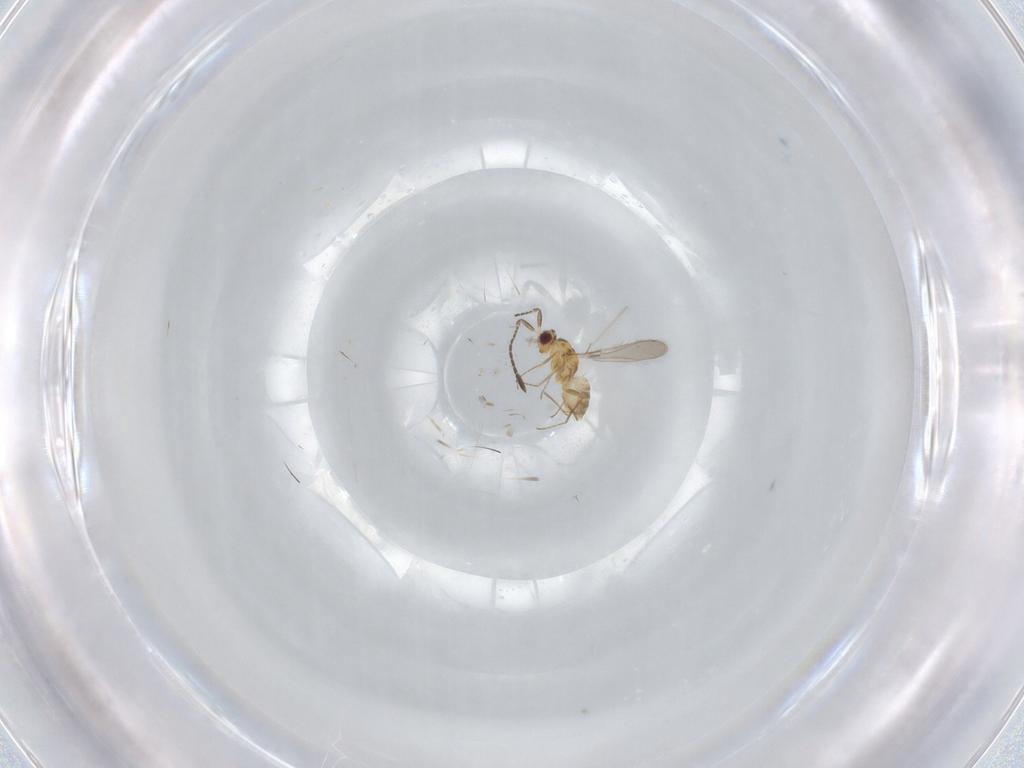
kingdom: Animalia
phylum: Arthropoda
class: Insecta
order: Hymenoptera
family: Mymaridae
